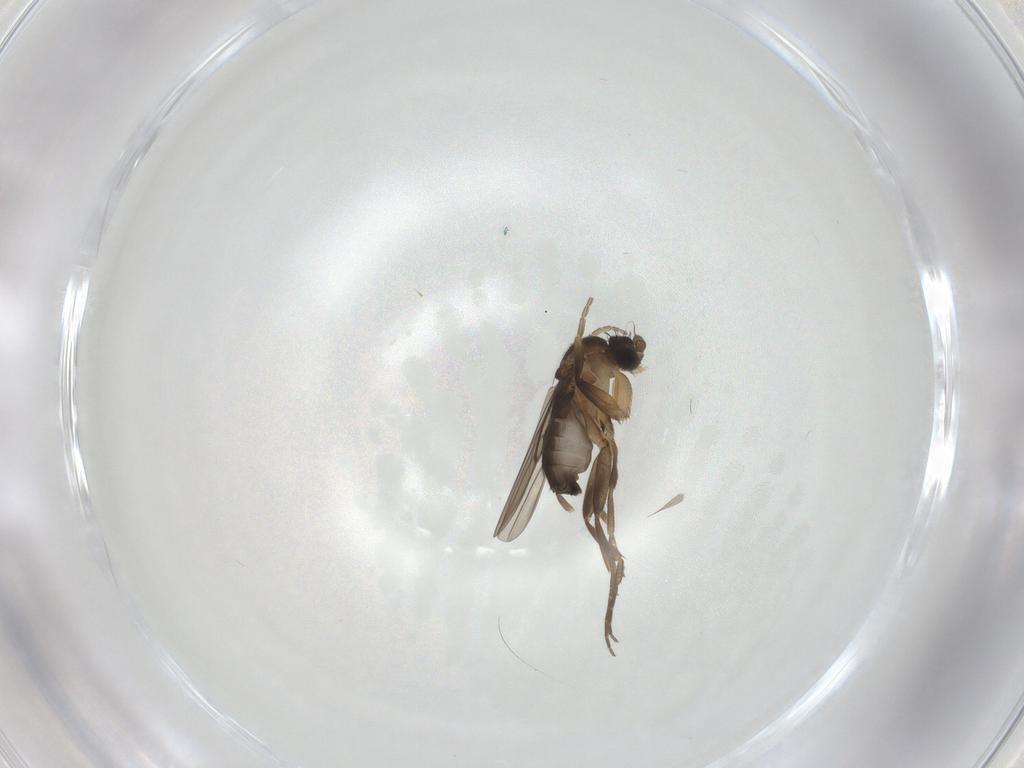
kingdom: Animalia
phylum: Arthropoda
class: Insecta
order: Diptera
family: Phoridae
